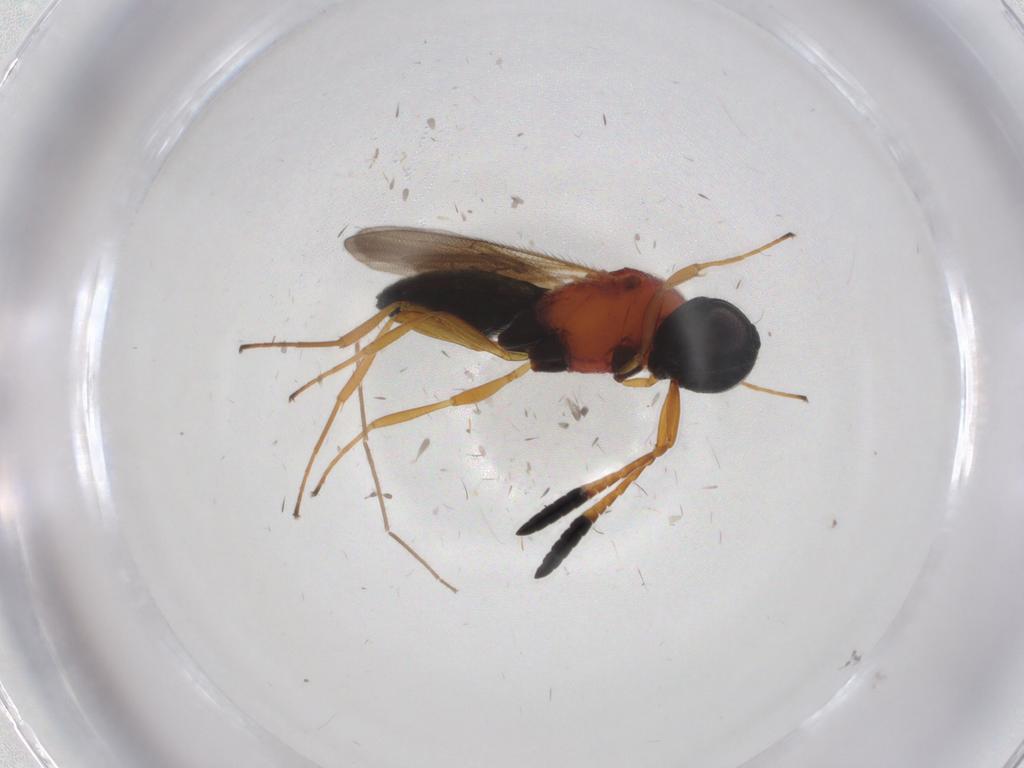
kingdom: Animalia
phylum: Arthropoda
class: Insecta
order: Hymenoptera
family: Scelionidae
